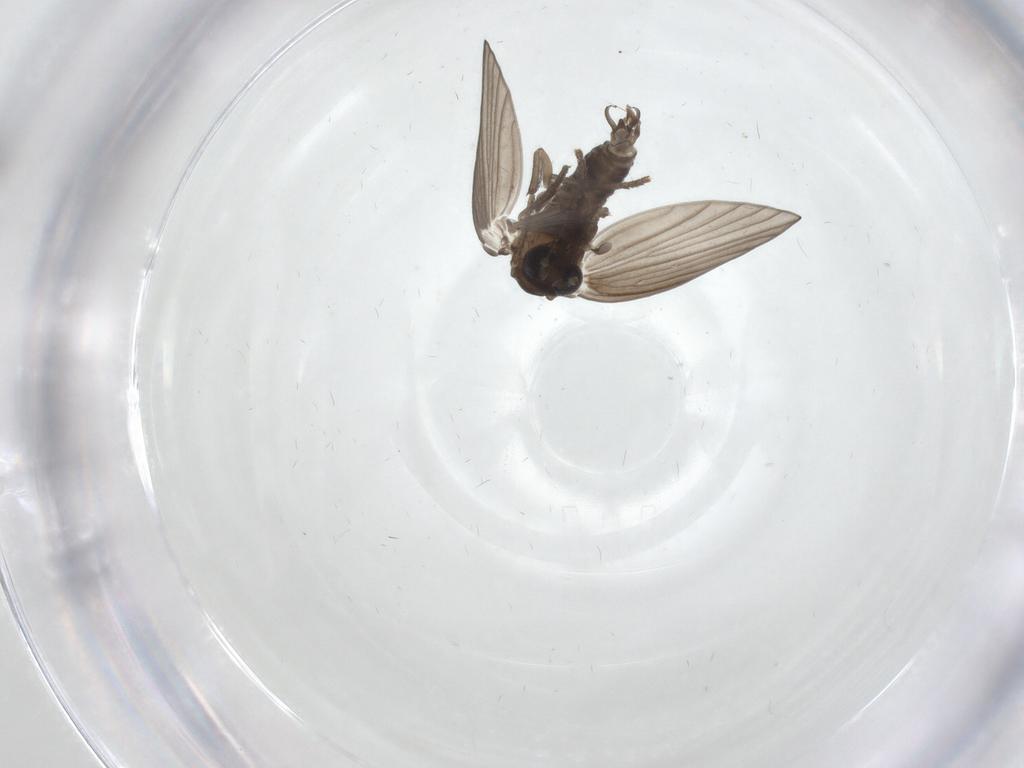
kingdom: Animalia
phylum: Arthropoda
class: Insecta
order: Diptera
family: Psychodidae
